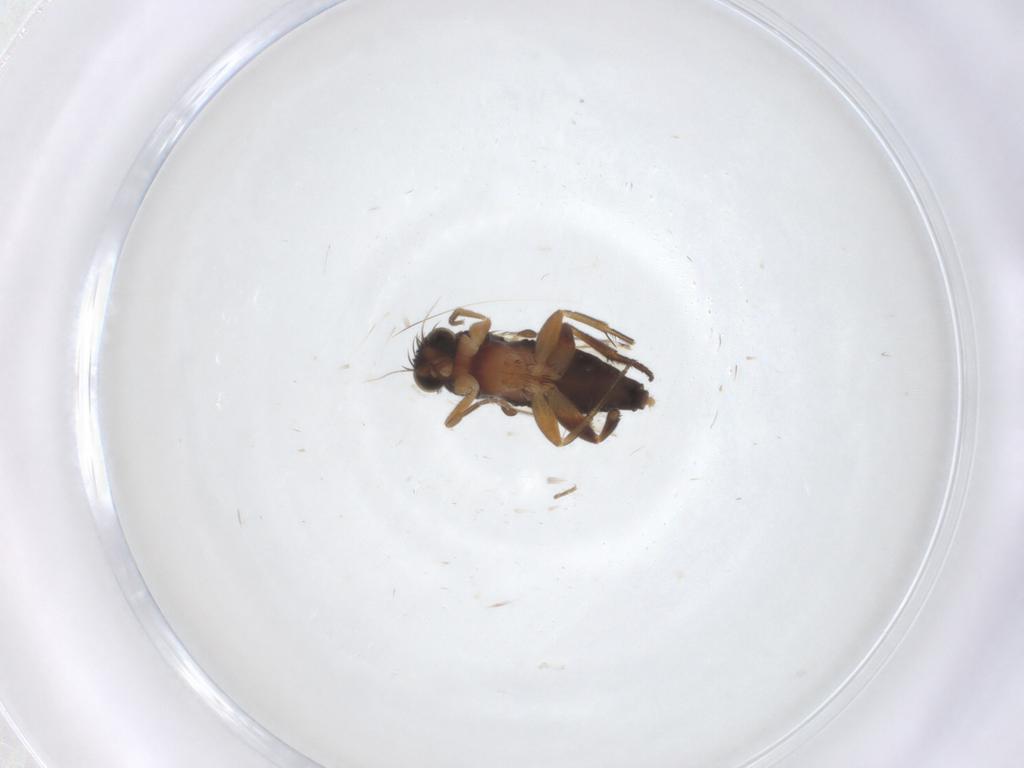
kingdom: Animalia
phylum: Arthropoda
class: Insecta
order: Diptera
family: Phoridae
